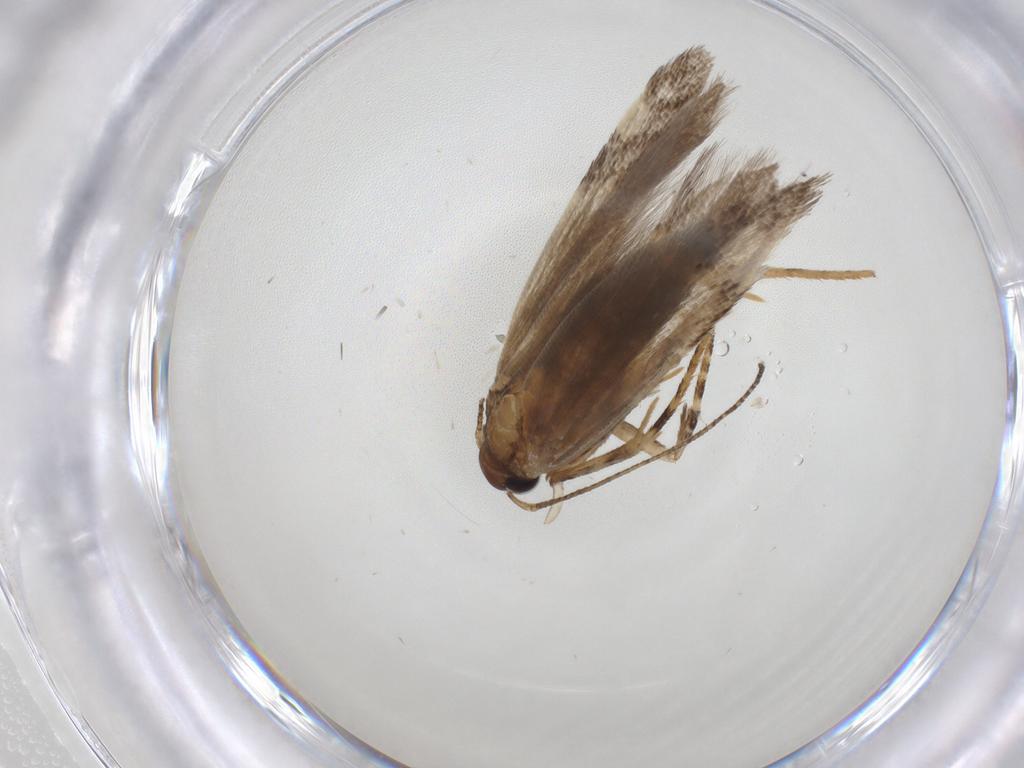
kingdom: Animalia
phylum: Arthropoda
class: Insecta
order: Lepidoptera
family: Gelechiidae
